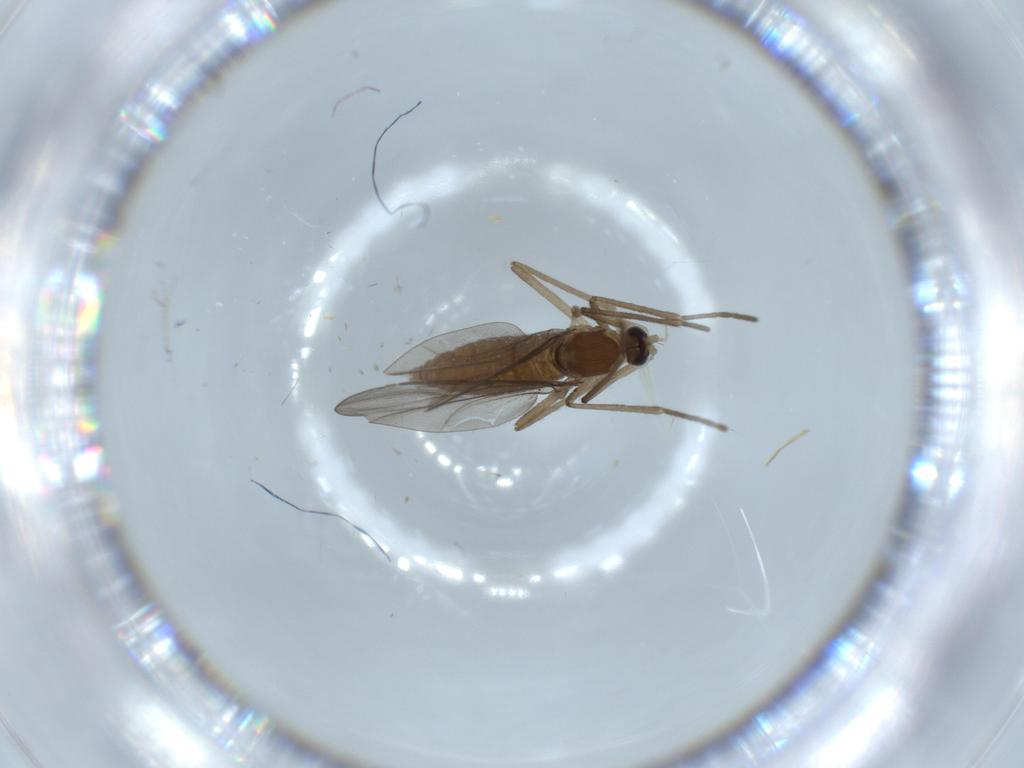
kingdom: Animalia
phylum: Arthropoda
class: Insecta
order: Diptera
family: Cecidomyiidae
